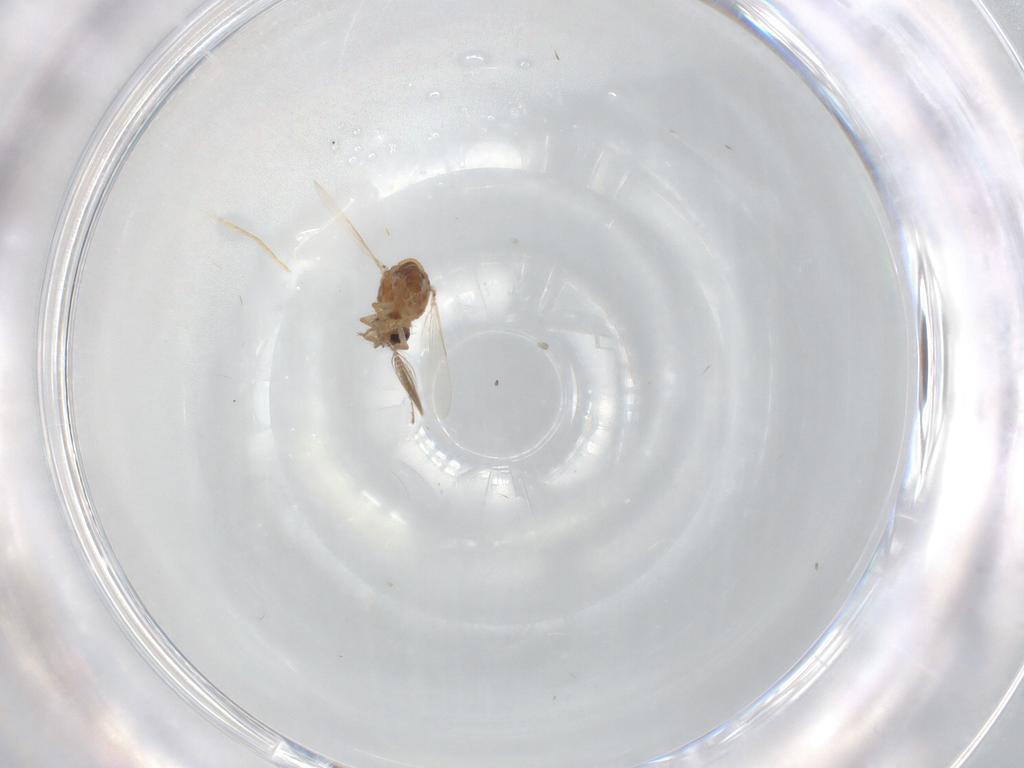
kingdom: Animalia
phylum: Arthropoda
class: Insecta
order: Diptera
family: Ceratopogonidae
